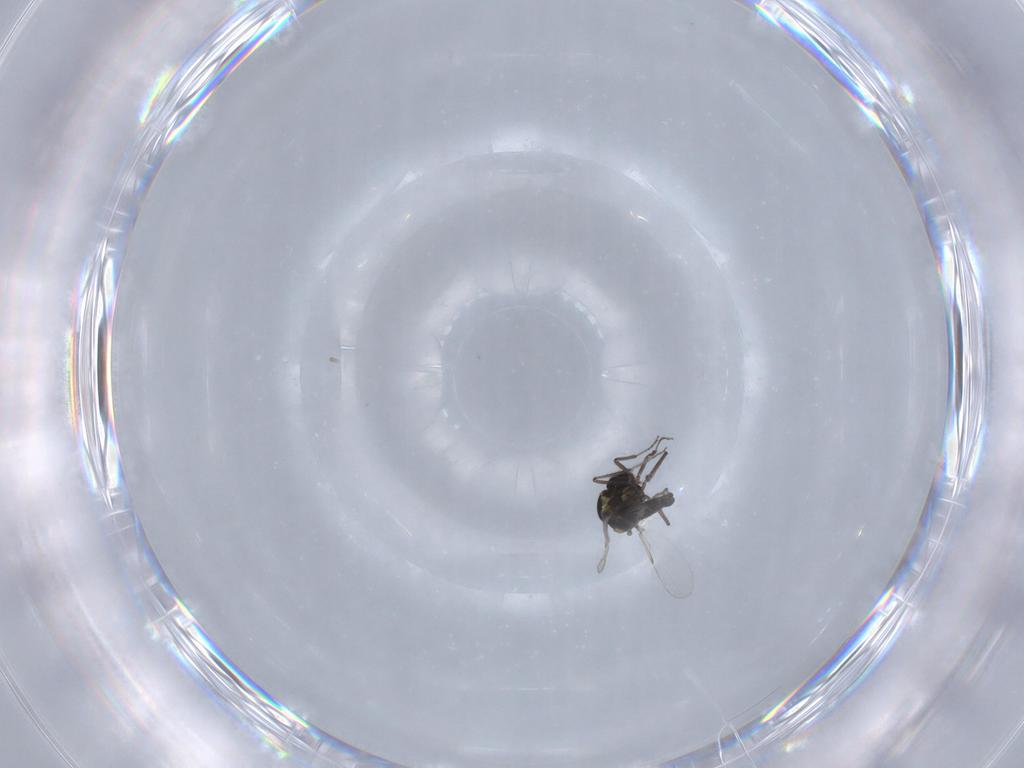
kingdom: Animalia
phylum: Arthropoda
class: Insecta
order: Diptera
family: Ceratopogonidae
